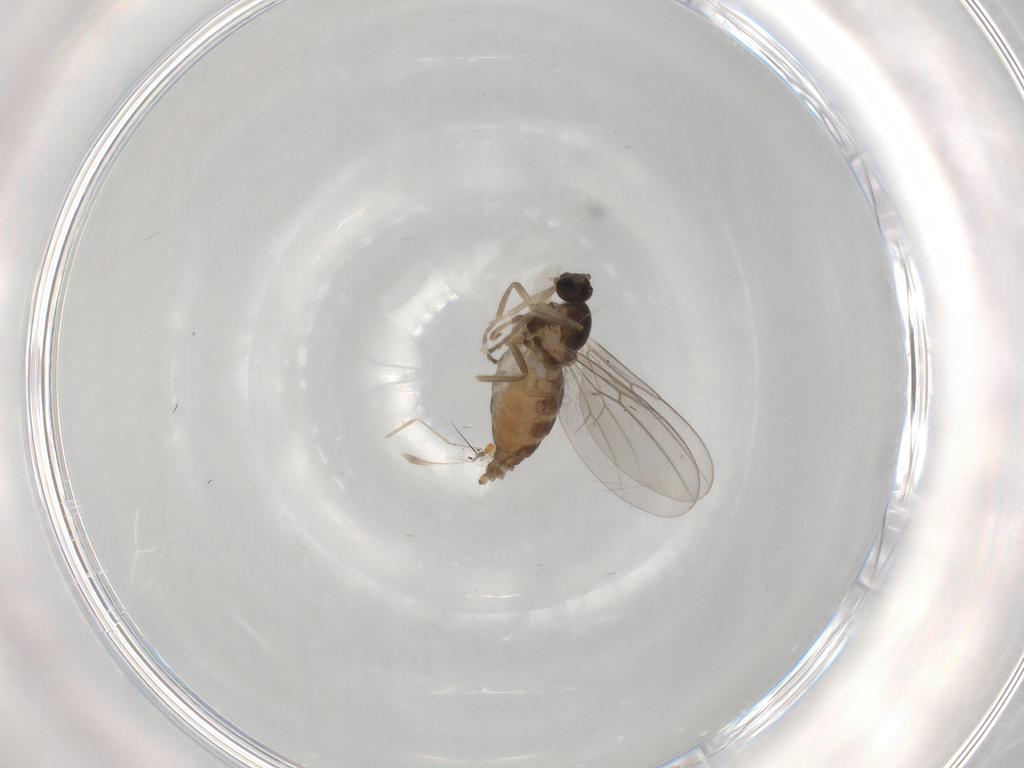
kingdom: Animalia
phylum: Arthropoda
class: Insecta
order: Diptera
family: Cecidomyiidae
